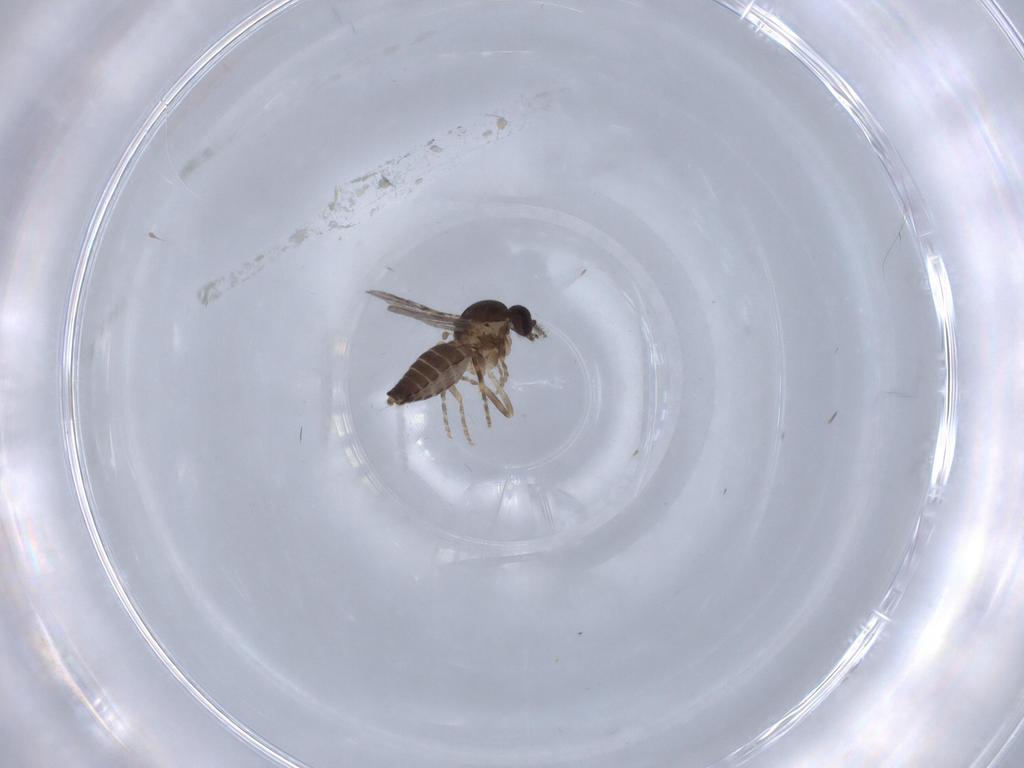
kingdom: Animalia
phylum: Arthropoda
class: Insecta
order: Diptera
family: Ceratopogonidae
